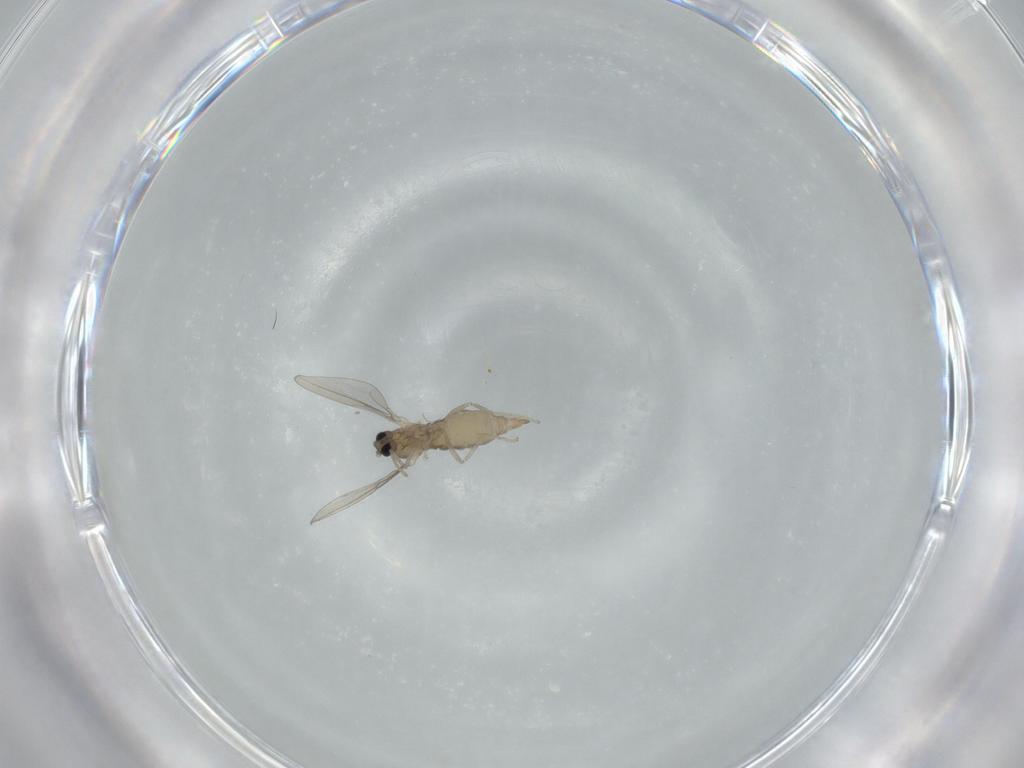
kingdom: Animalia
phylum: Arthropoda
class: Insecta
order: Diptera
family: Cecidomyiidae
